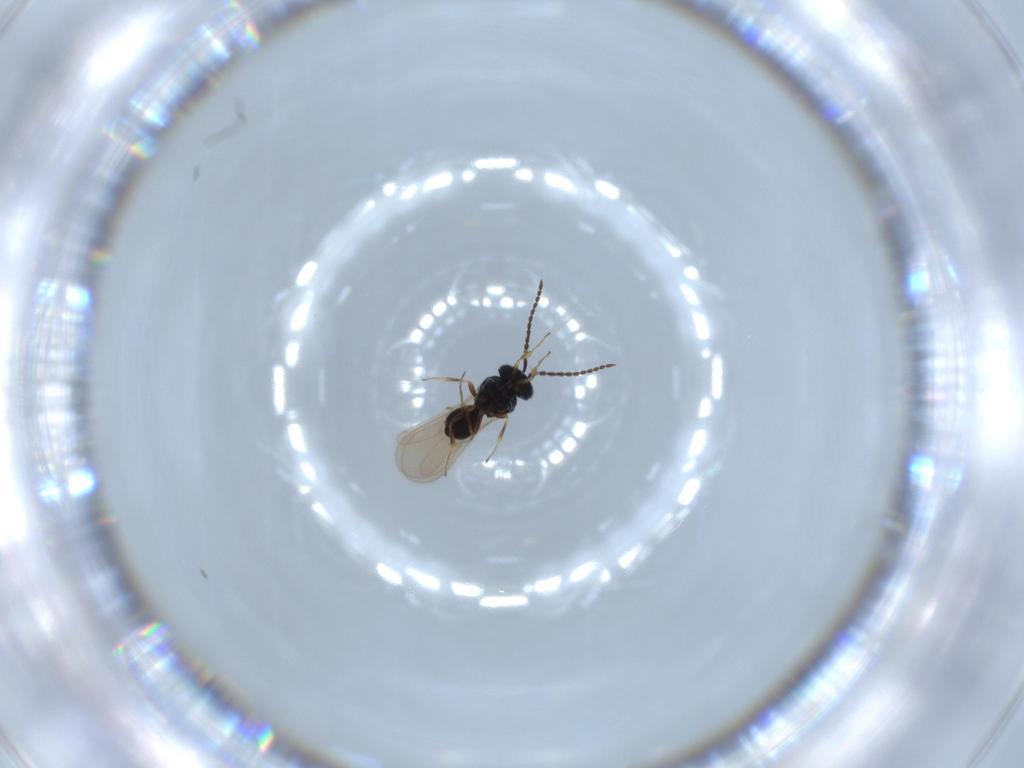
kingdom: Animalia
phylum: Arthropoda
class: Insecta
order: Hymenoptera
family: Scelionidae
